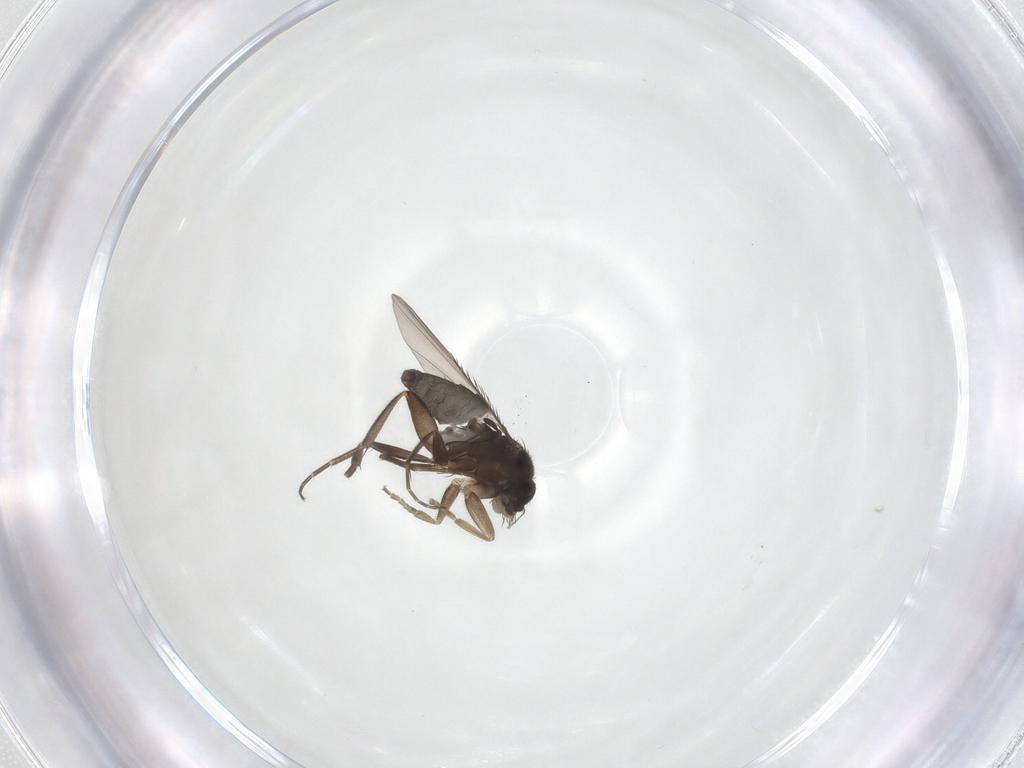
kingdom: Animalia
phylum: Arthropoda
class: Insecta
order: Diptera
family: Phoridae
